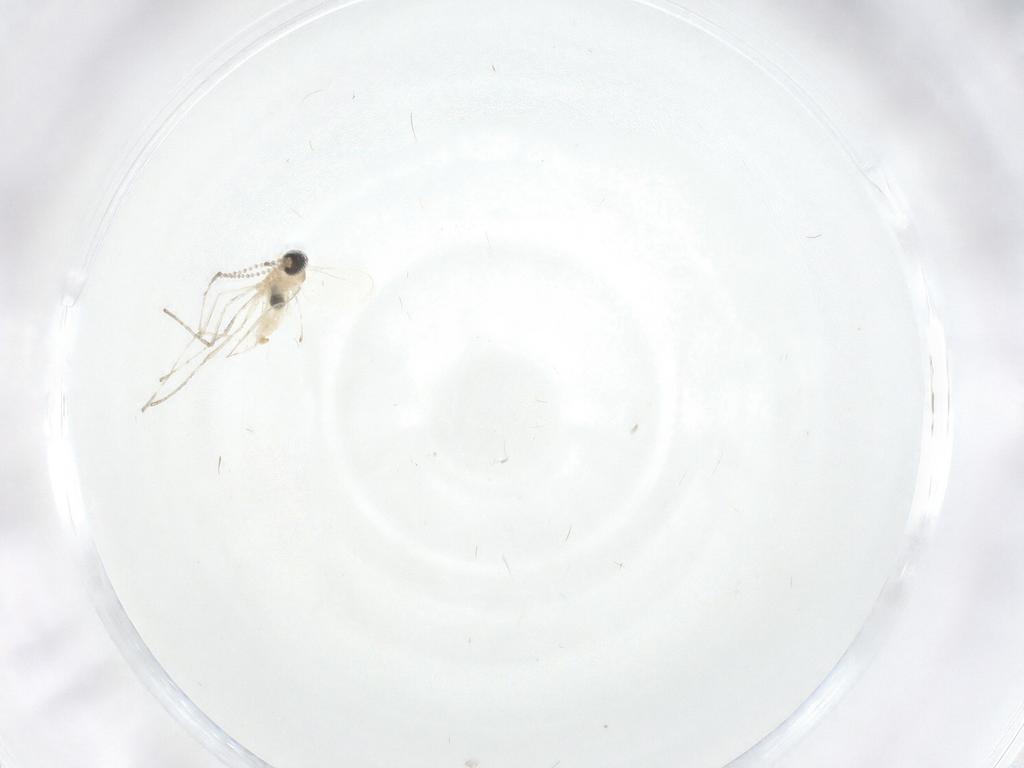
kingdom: Animalia
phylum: Arthropoda
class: Insecta
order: Diptera
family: Cecidomyiidae
